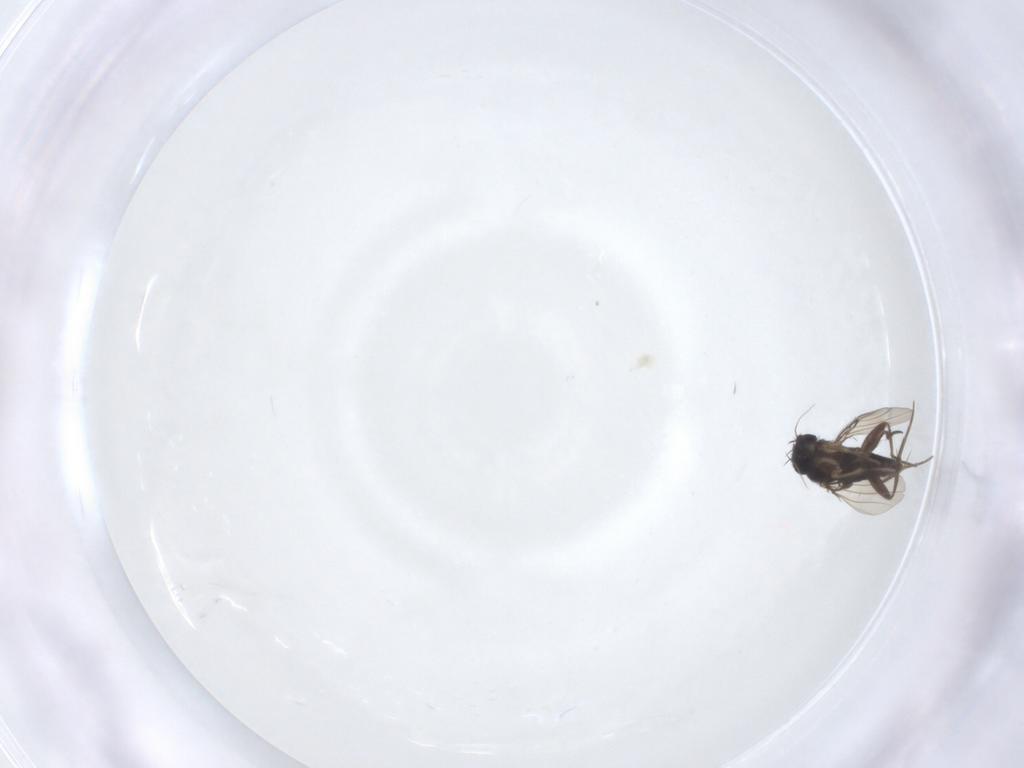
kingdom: Animalia
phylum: Arthropoda
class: Insecta
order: Diptera
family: Phoridae
